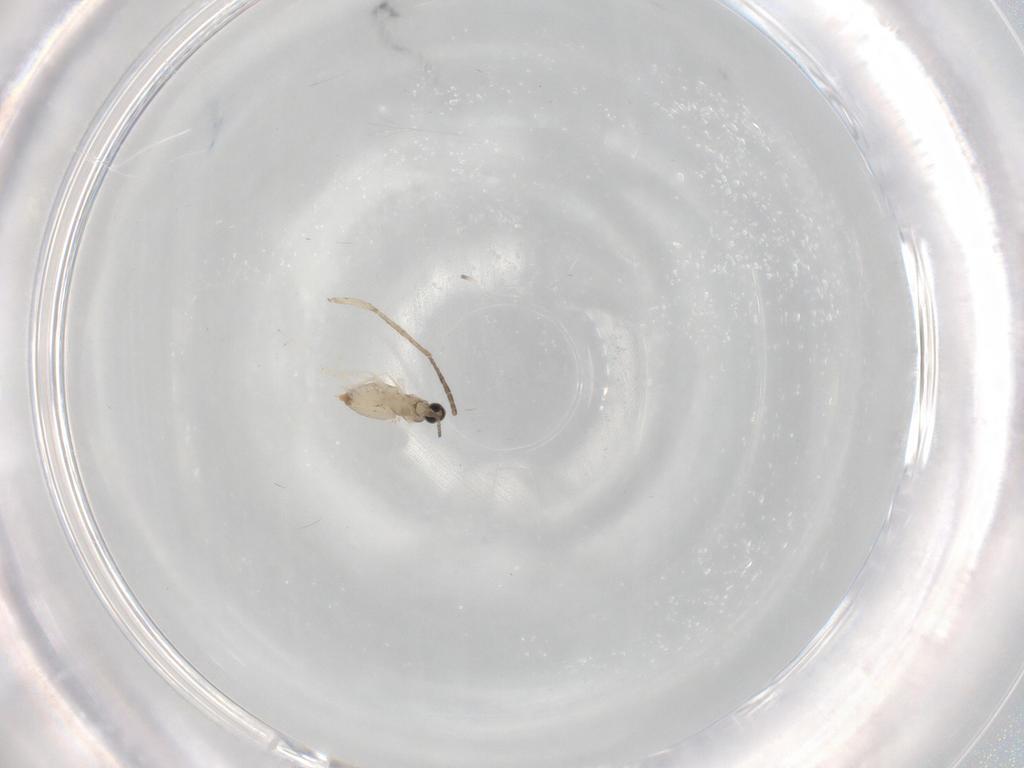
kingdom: Animalia
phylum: Arthropoda
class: Insecta
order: Diptera
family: Cecidomyiidae
